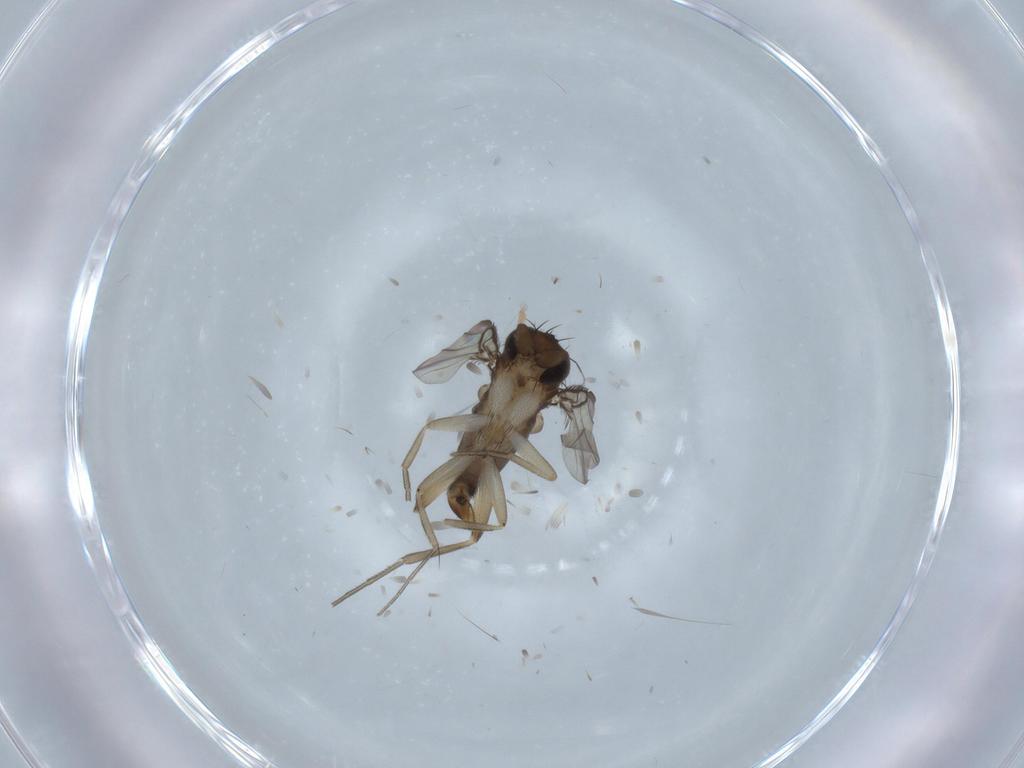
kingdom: Animalia
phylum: Arthropoda
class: Insecta
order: Diptera
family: Phoridae
